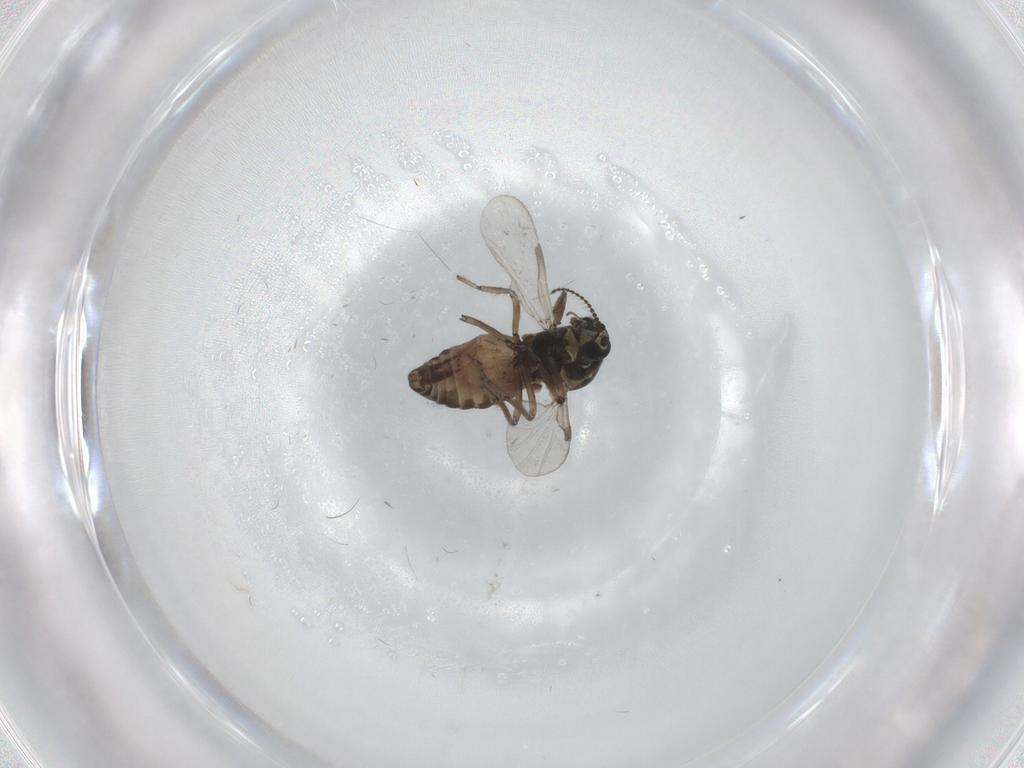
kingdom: Animalia
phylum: Arthropoda
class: Insecta
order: Diptera
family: Culicidae
